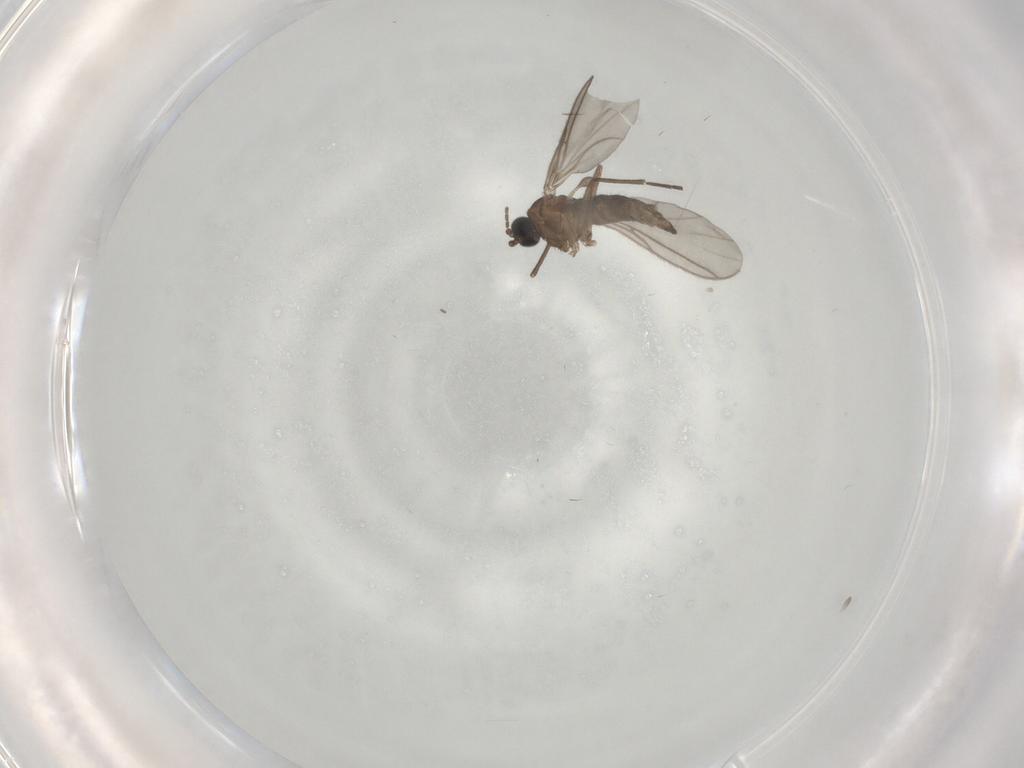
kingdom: Animalia
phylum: Arthropoda
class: Insecta
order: Diptera
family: Sciaridae
